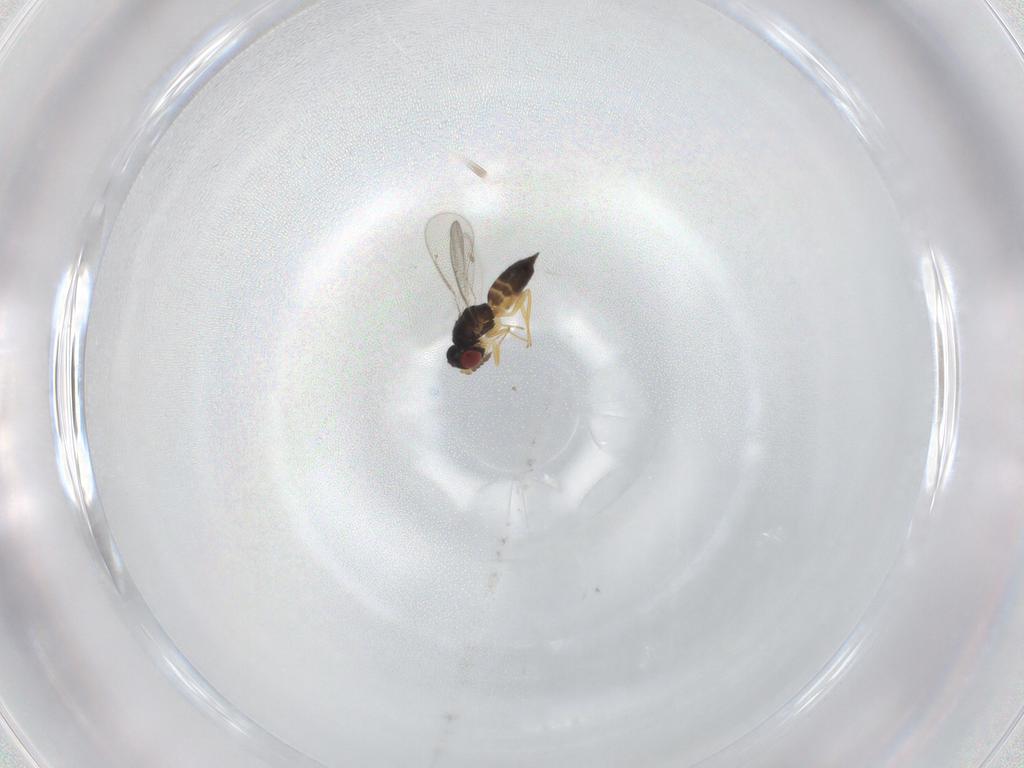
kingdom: Animalia
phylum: Arthropoda
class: Insecta
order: Hymenoptera
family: Eulophidae
